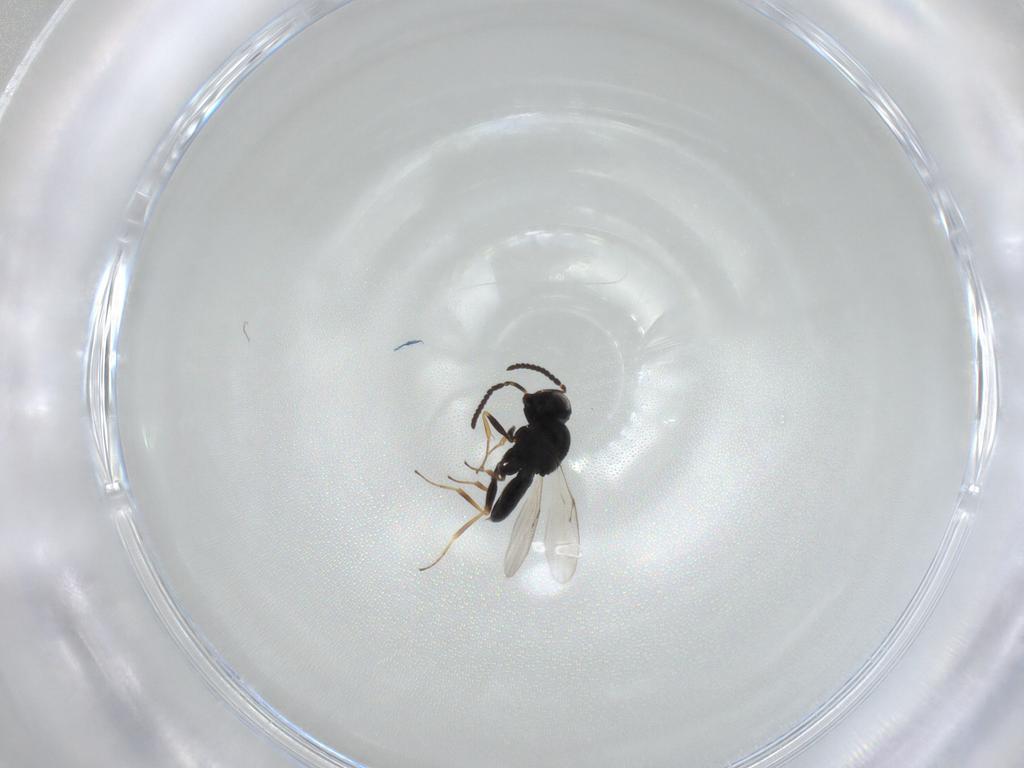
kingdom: Animalia
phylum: Arthropoda
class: Insecta
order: Hymenoptera
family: Scelionidae
